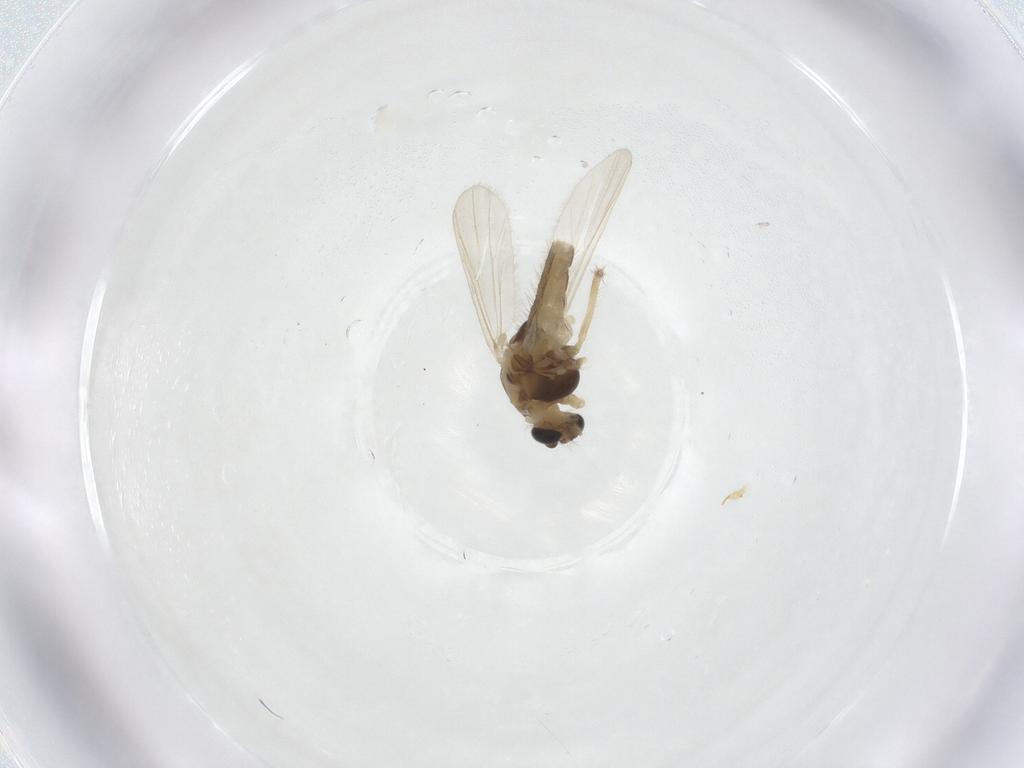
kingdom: Animalia
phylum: Arthropoda
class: Insecta
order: Diptera
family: Chironomidae
